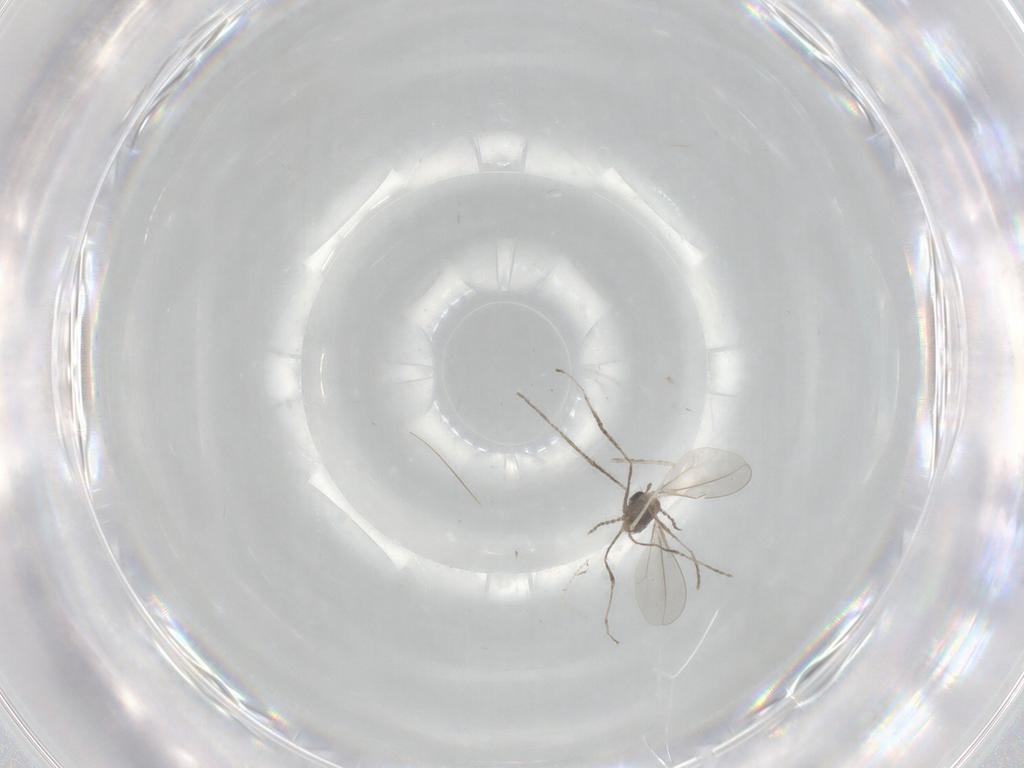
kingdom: Animalia
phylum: Arthropoda
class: Insecta
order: Diptera
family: Cecidomyiidae
